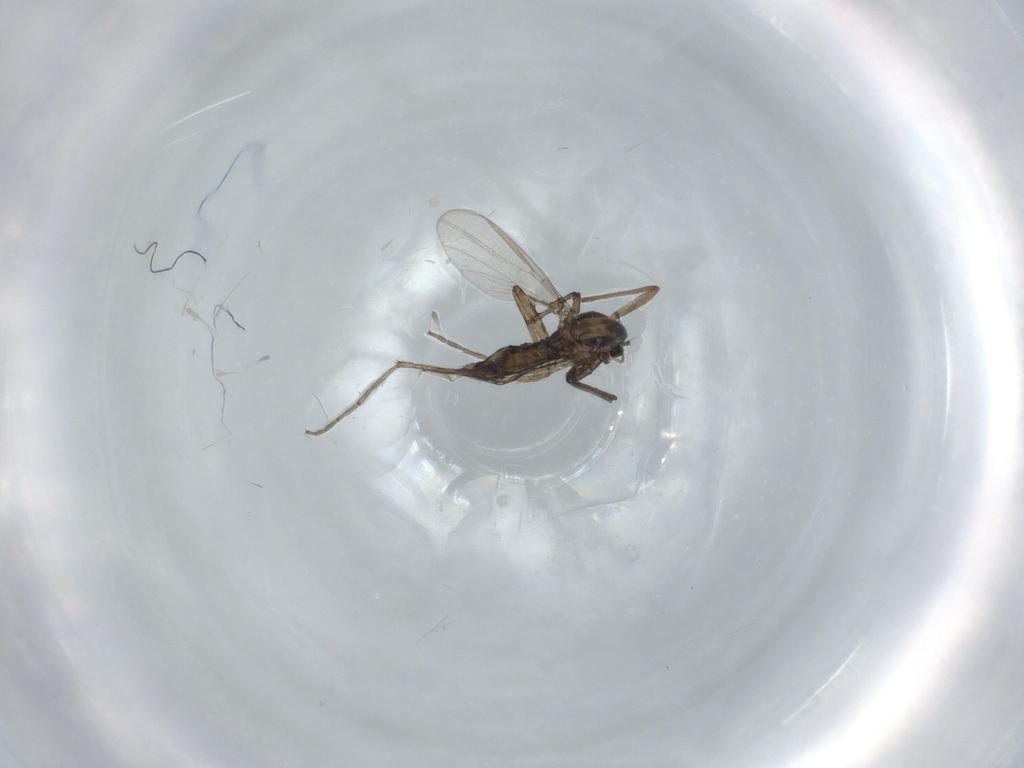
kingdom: Animalia
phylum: Arthropoda
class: Insecta
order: Diptera
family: Chironomidae
